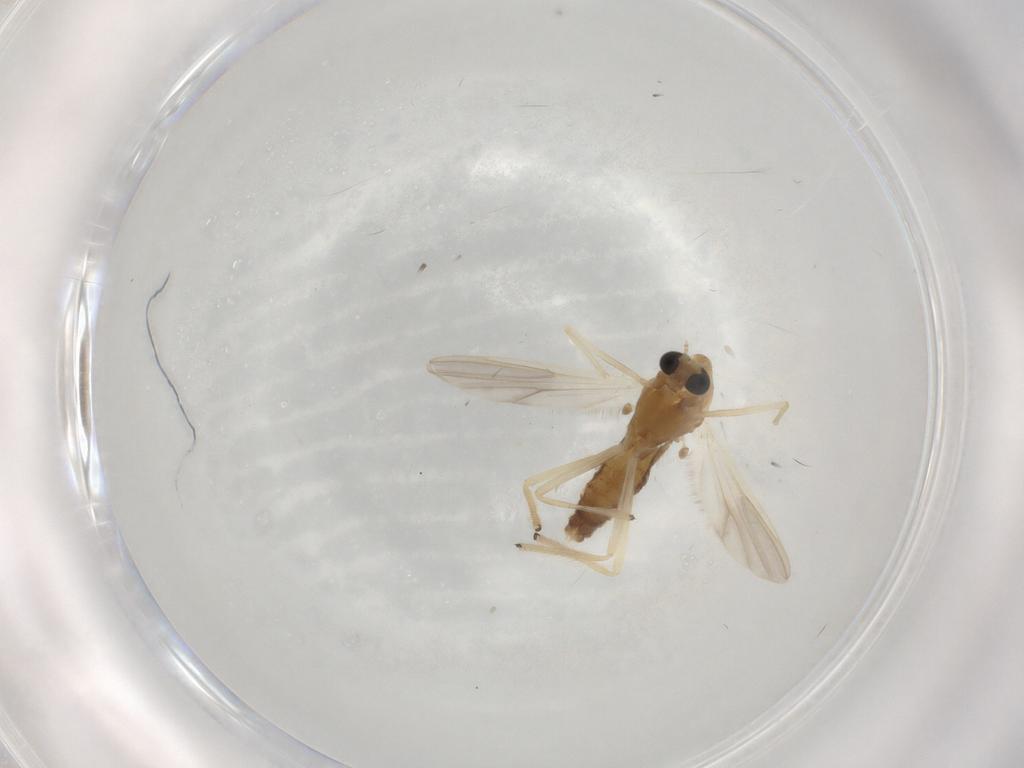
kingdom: Animalia
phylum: Arthropoda
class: Insecta
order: Diptera
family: Chironomidae
